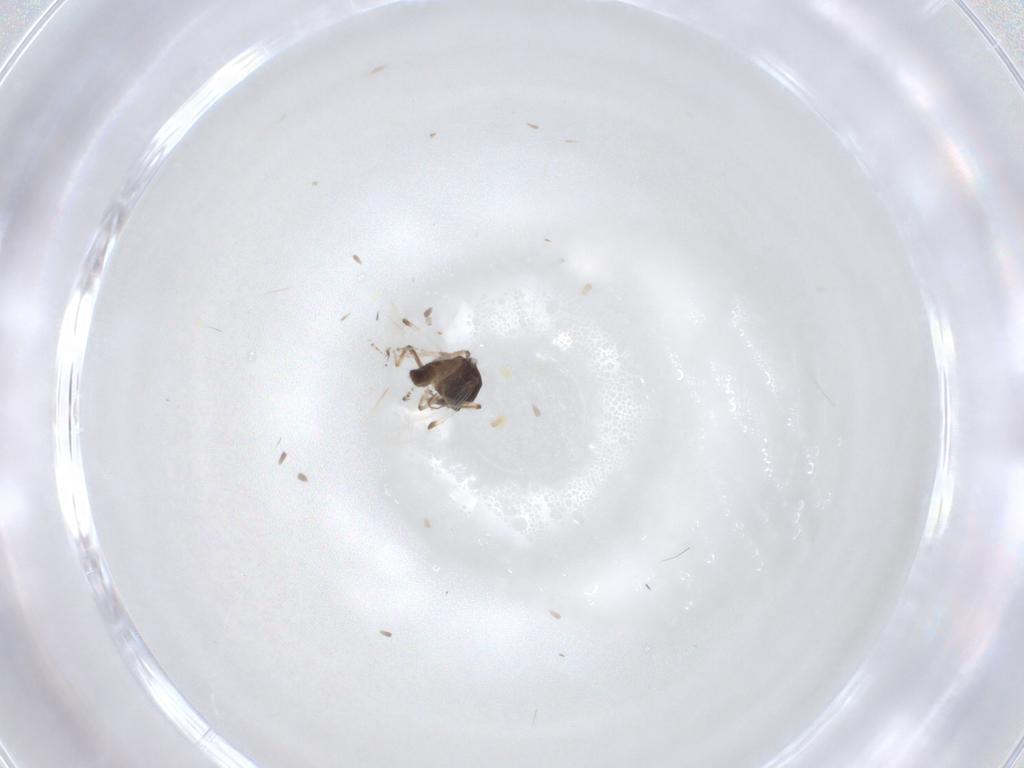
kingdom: Animalia
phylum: Arthropoda
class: Insecta
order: Diptera
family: Ceratopogonidae
